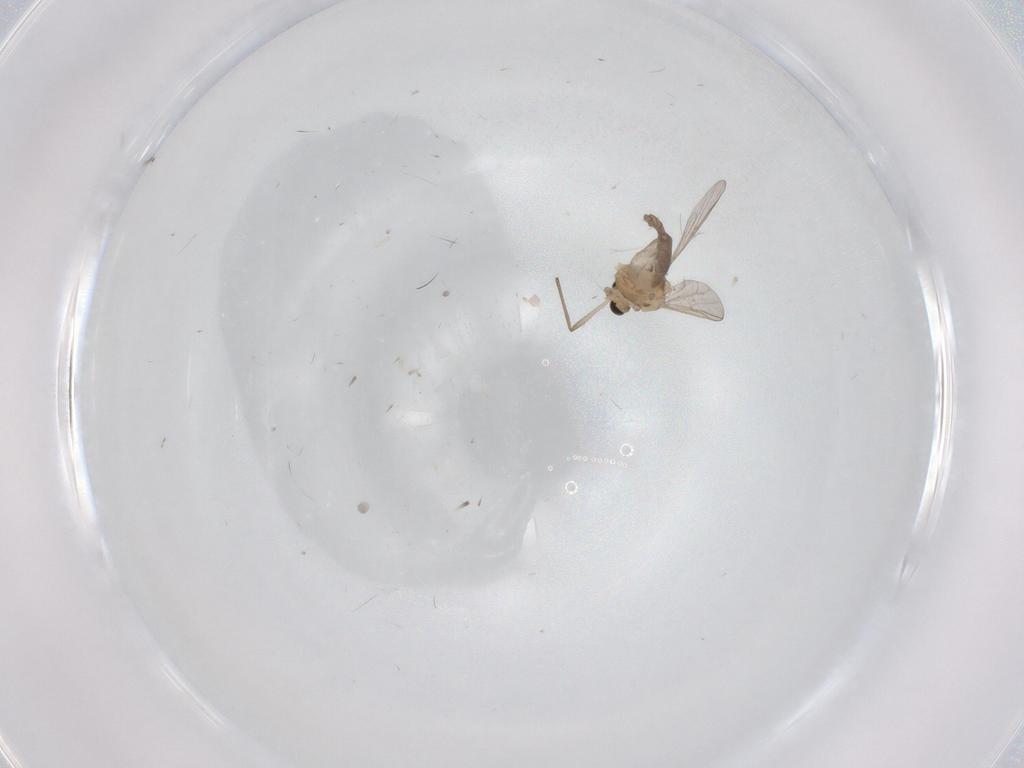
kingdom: Animalia
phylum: Arthropoda
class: Insecta
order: Diptera
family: Chironomidae
